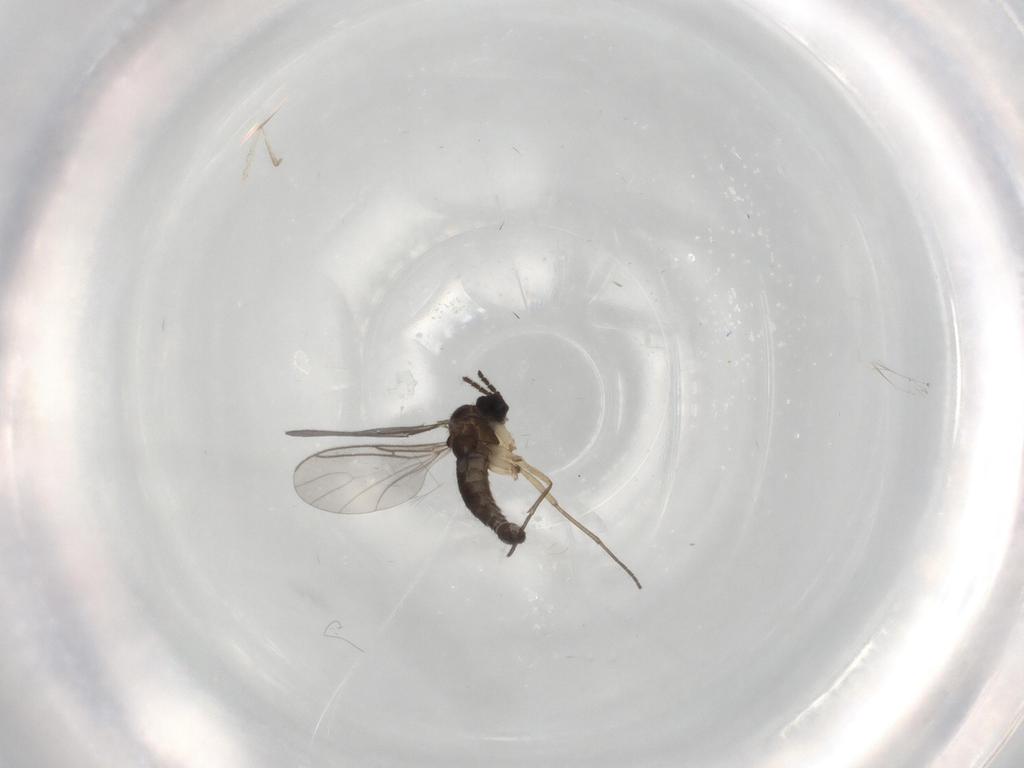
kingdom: Animalia
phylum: Arthropoda
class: Insecta
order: Diptera
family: Sciaridae
